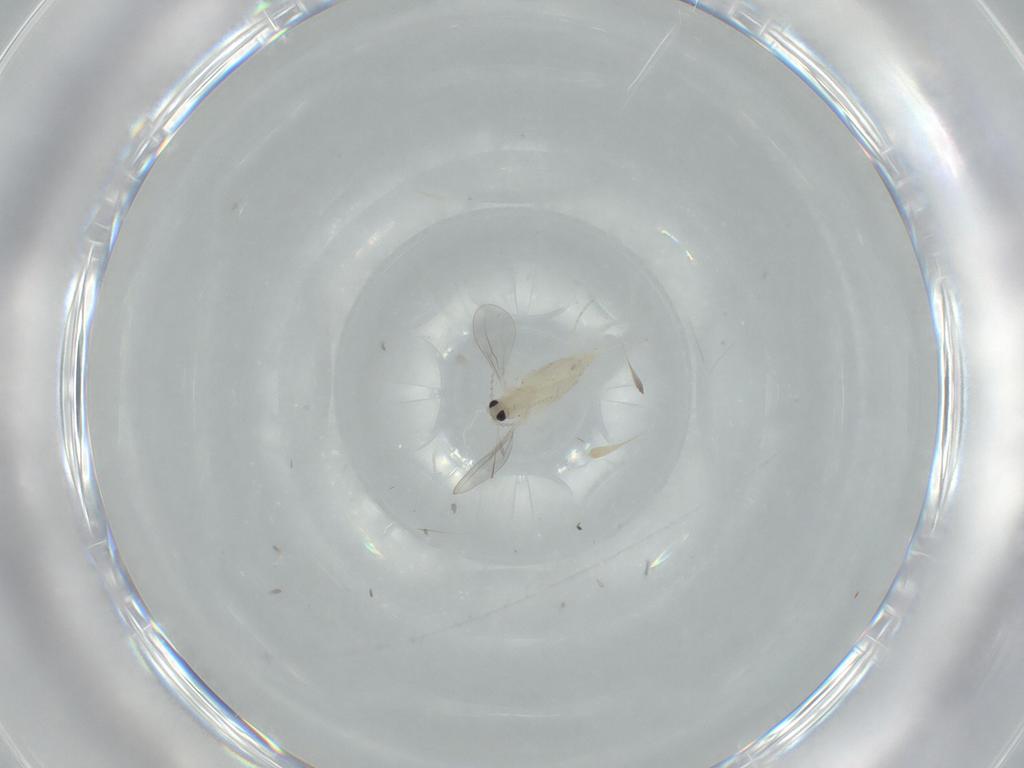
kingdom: Animalia
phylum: Arthropoda
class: Insecta
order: Diptera
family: Cecidomyiidae
